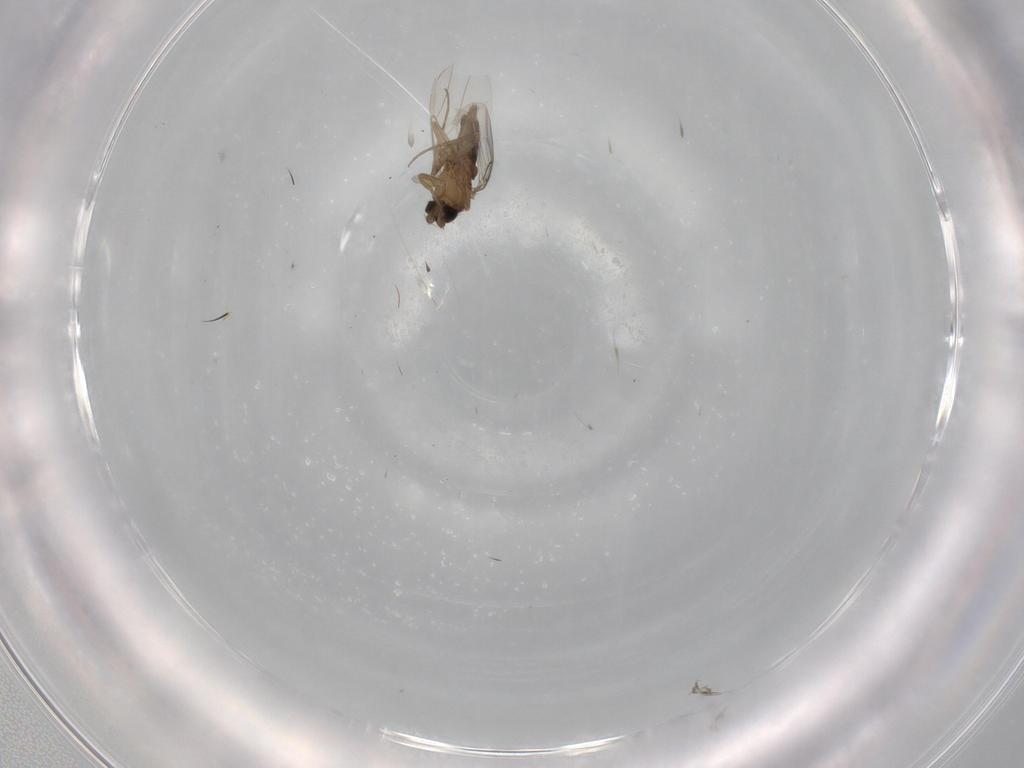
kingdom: Animalia
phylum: Arthropoda
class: Insecta
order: Diptera
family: Phoridae
